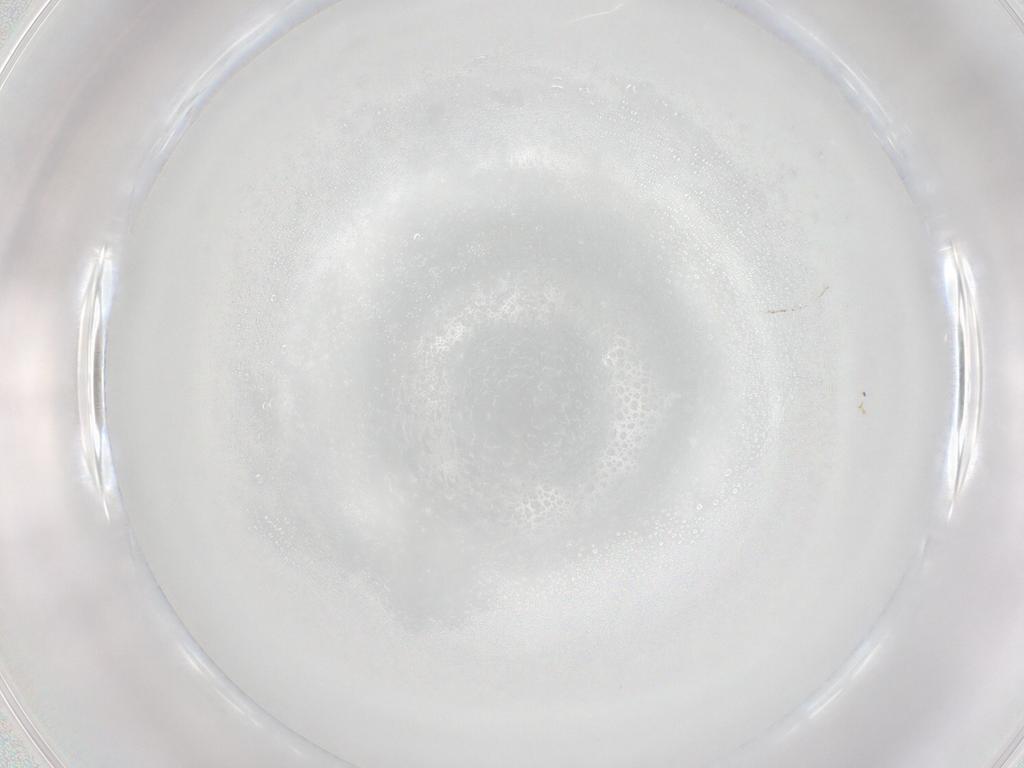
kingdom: Animalia
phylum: Arthropoda
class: Arachnida
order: Trombidiformes
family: Eupodidae
